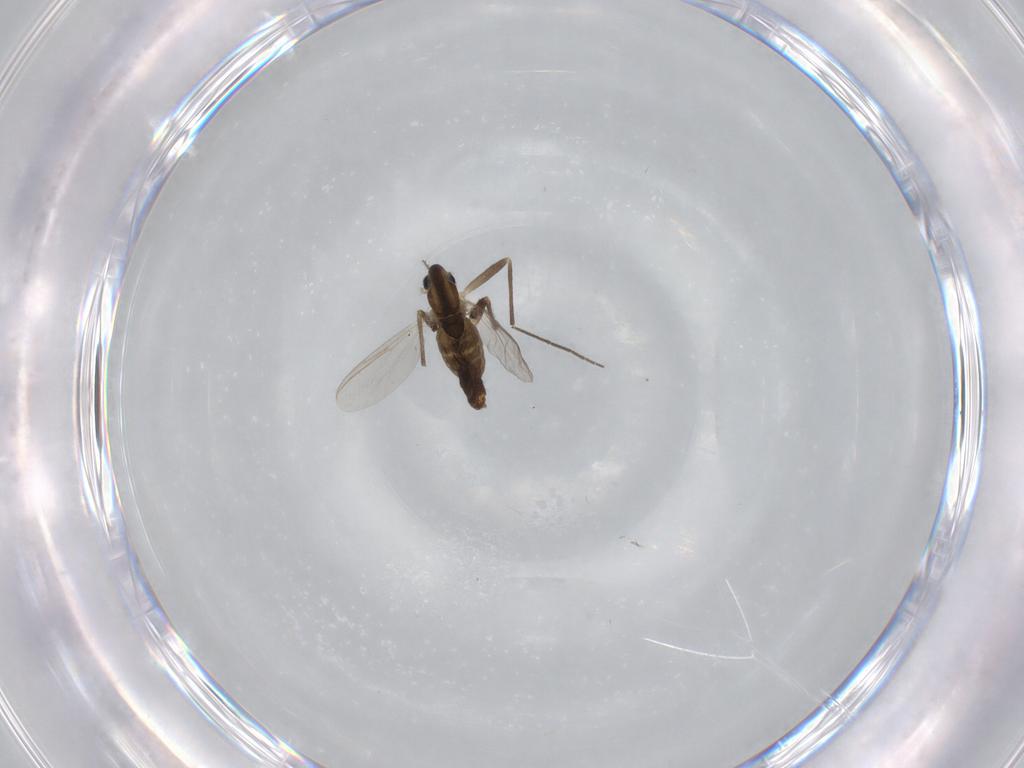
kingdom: Animalia
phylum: Arthropoda
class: Insecta
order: Diptera
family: Chironomidae
